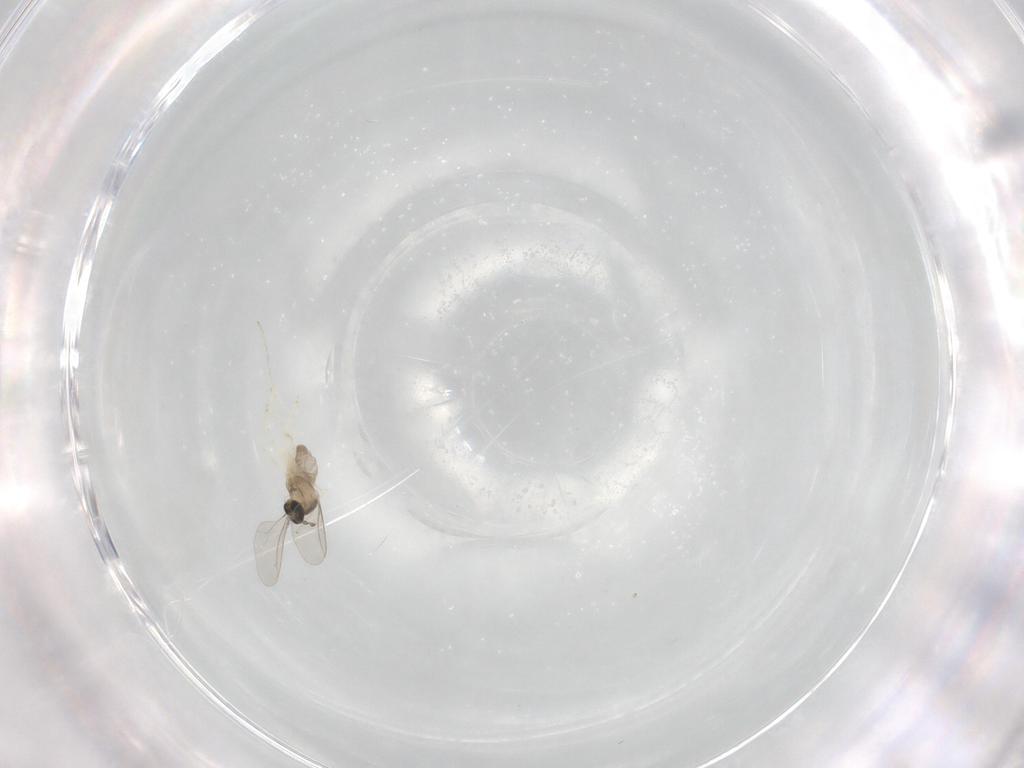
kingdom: Animalia
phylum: Arthropoda
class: Insecta
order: Diptera
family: Cecidomyiidae
